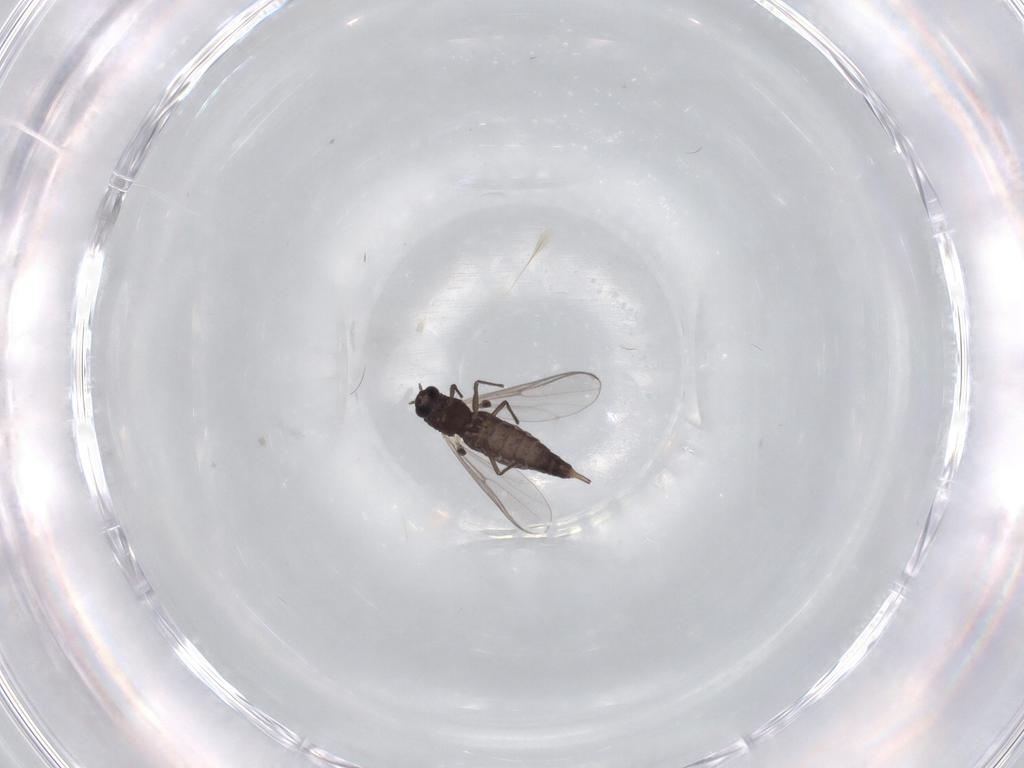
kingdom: Animalia
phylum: Arthropoda
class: Insecta
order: Diptera
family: Chironomidae
